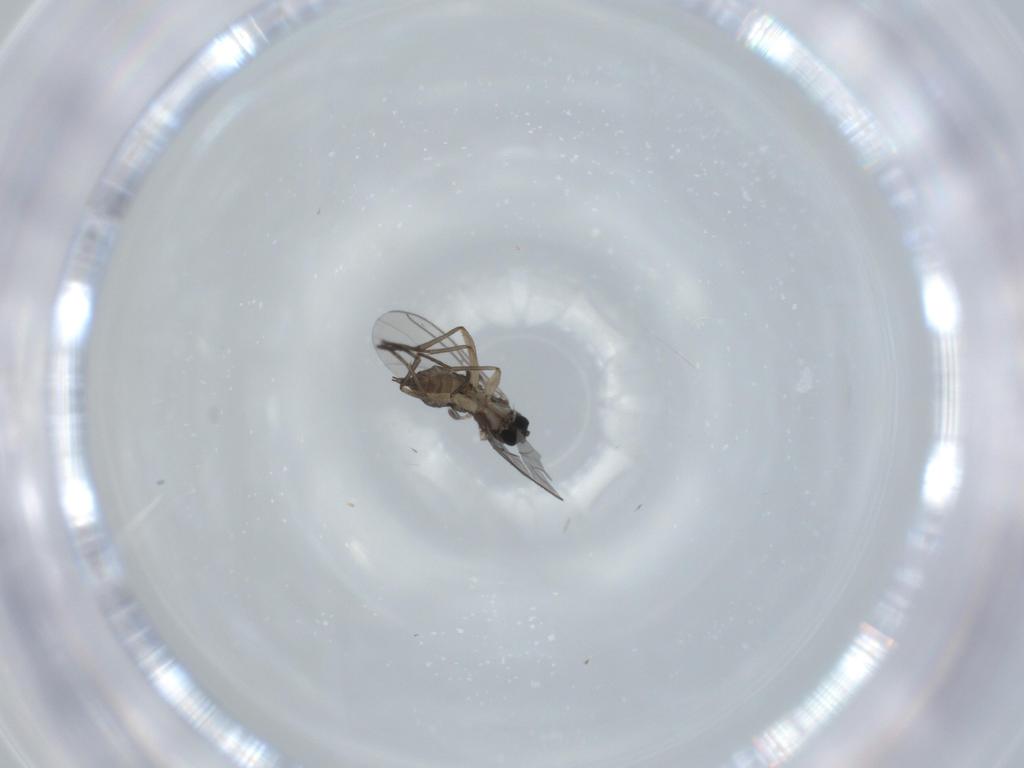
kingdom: Animalia
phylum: Arthropoda
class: Insecta
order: Diptera
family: Sciaridae
